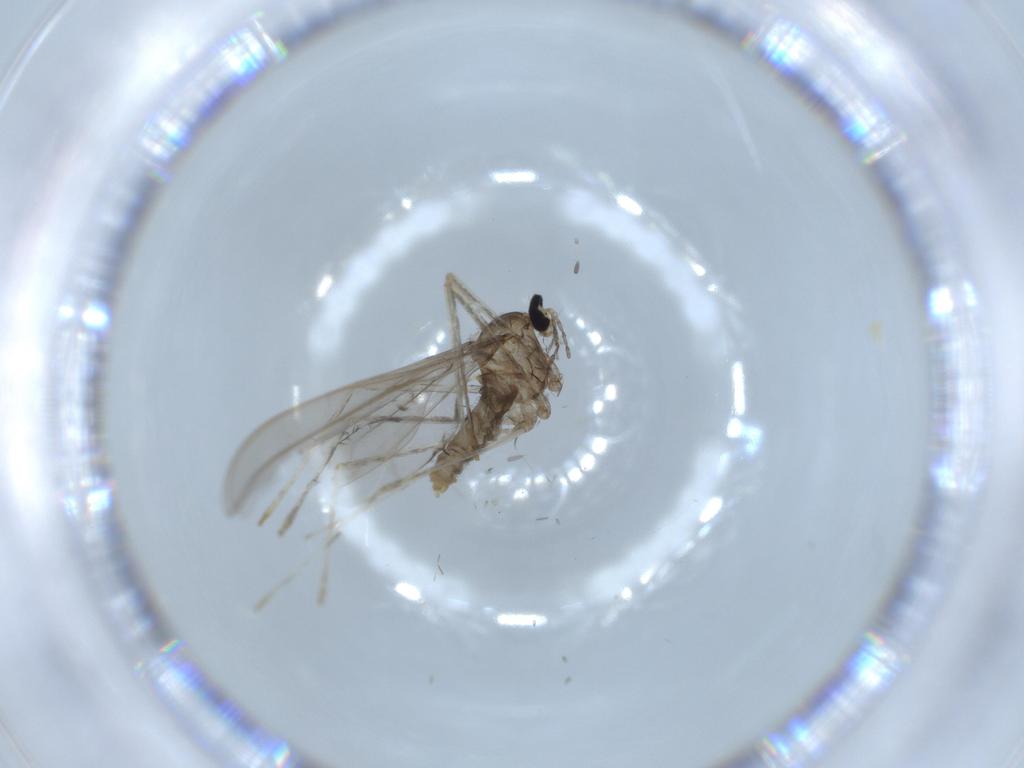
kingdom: Animalia
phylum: Arthropoda
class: Insecta
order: Diptera
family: Cecidomyiidae
